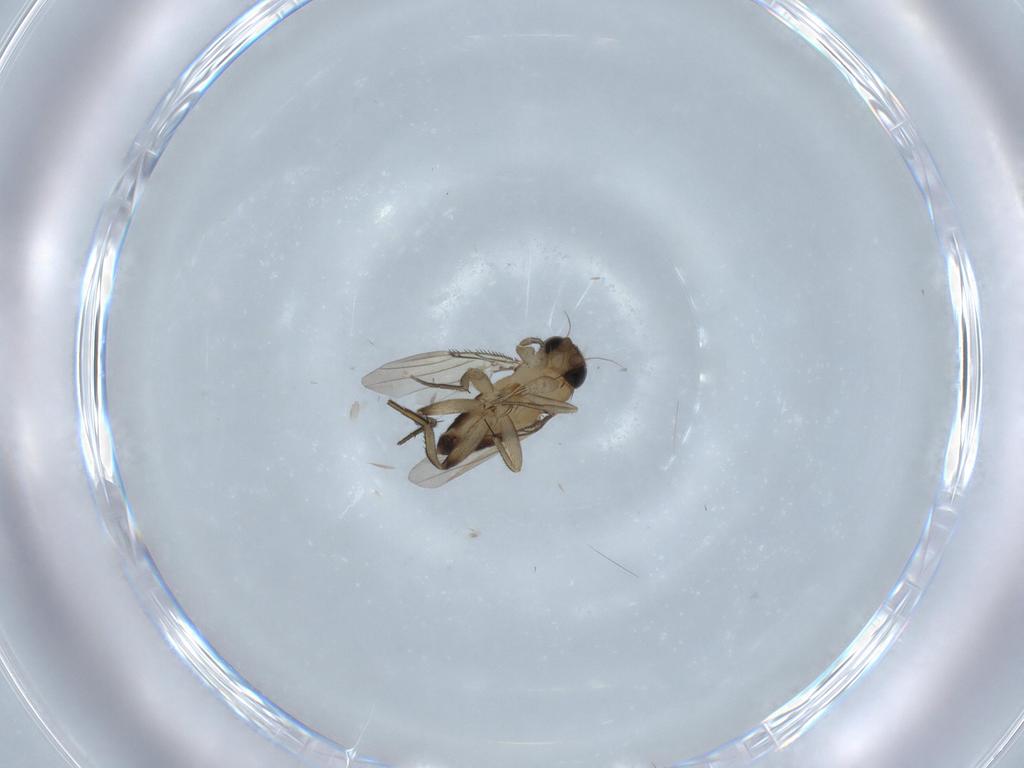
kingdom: Animalia
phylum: Arthropoda
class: Insecta
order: Diptera
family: Phoridae
